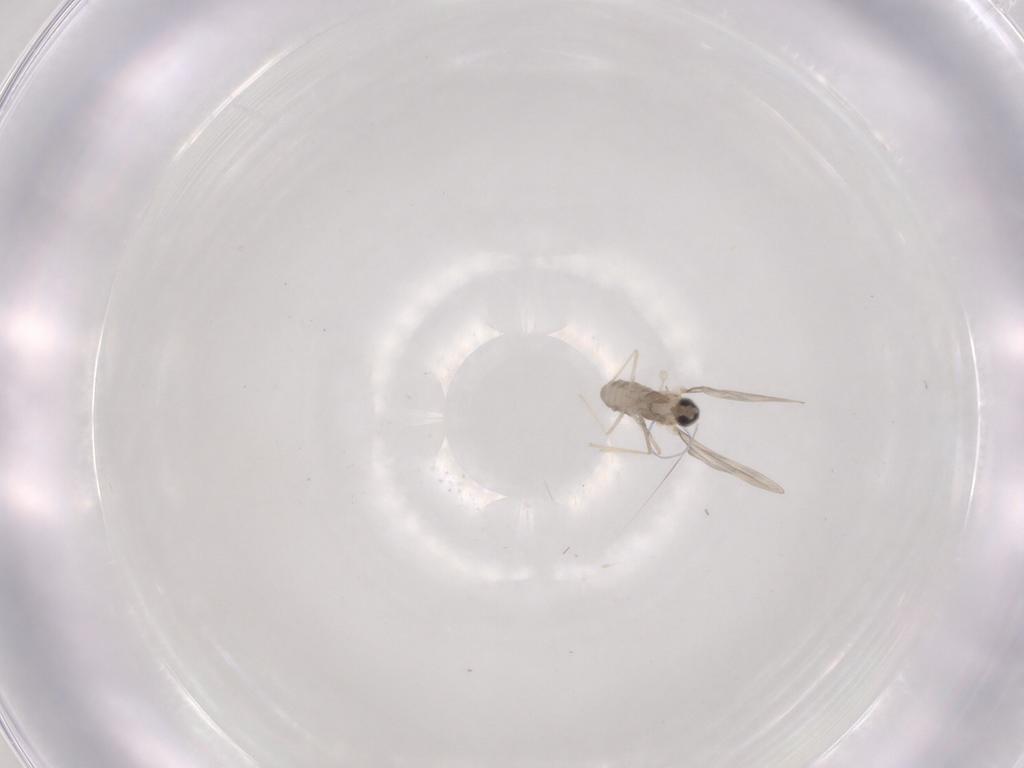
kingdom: Animalia
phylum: Arthropoda
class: Insecta
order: Diptera
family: Cecidomyiidae
